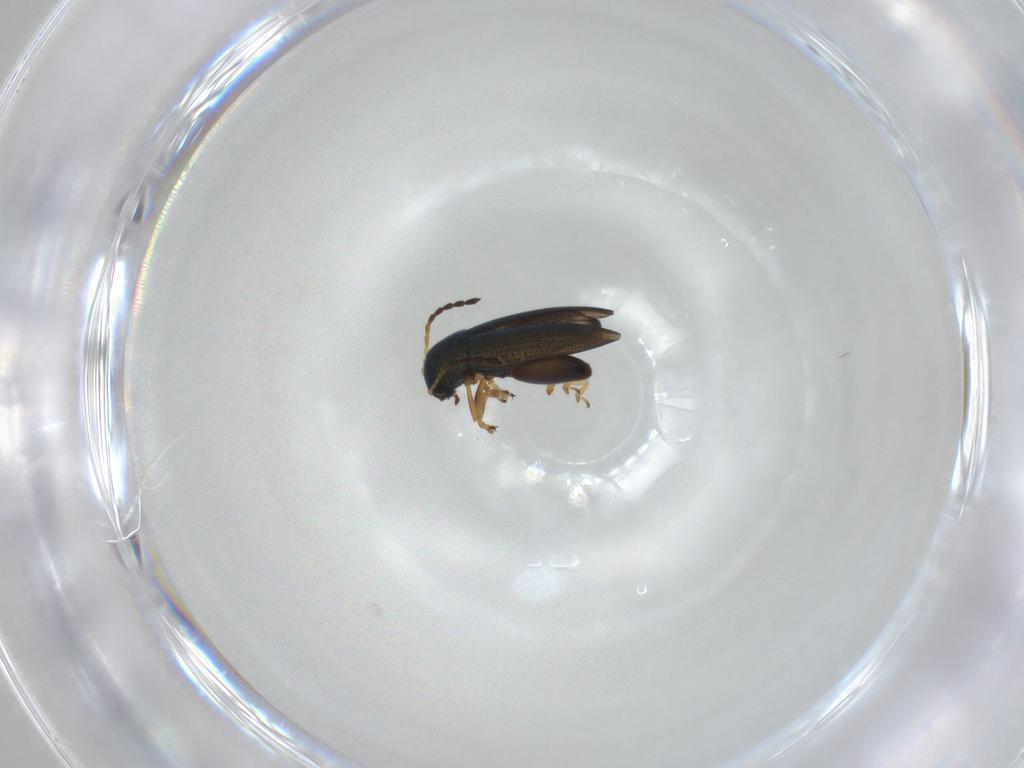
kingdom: Animalia
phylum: Arthropoda
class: Insecta
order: Coleoptera
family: Chrysomelidae
